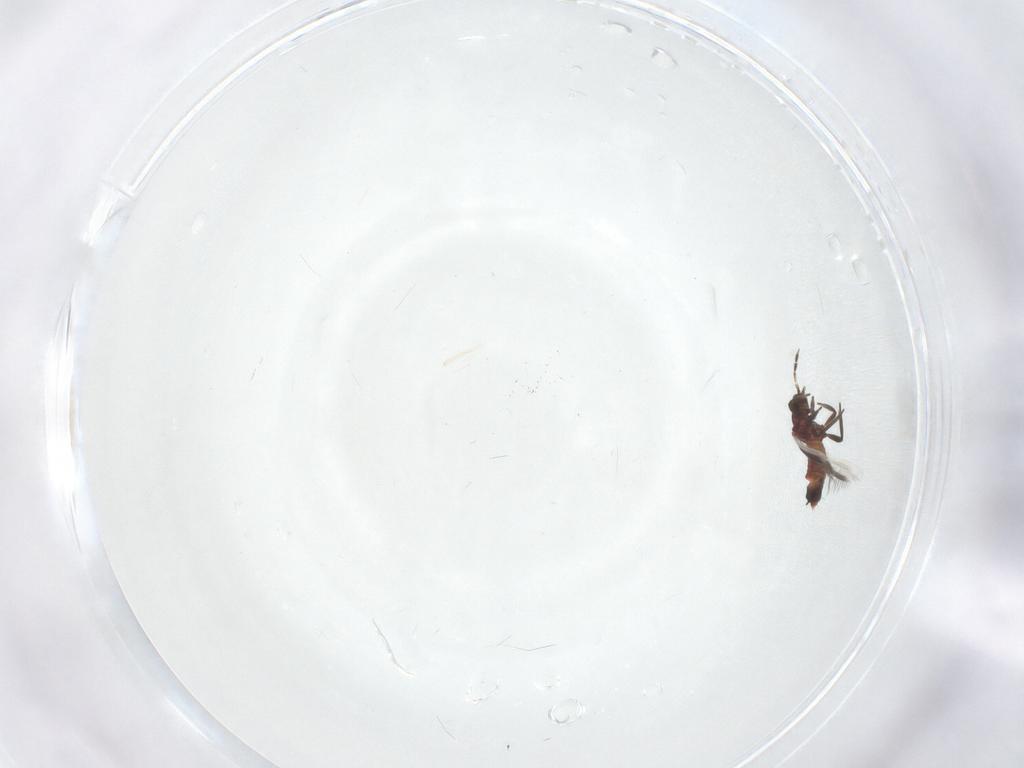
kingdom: Animalia
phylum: Arthropoda
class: Insecta
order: Thysanoptera
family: Aeolothripidae
